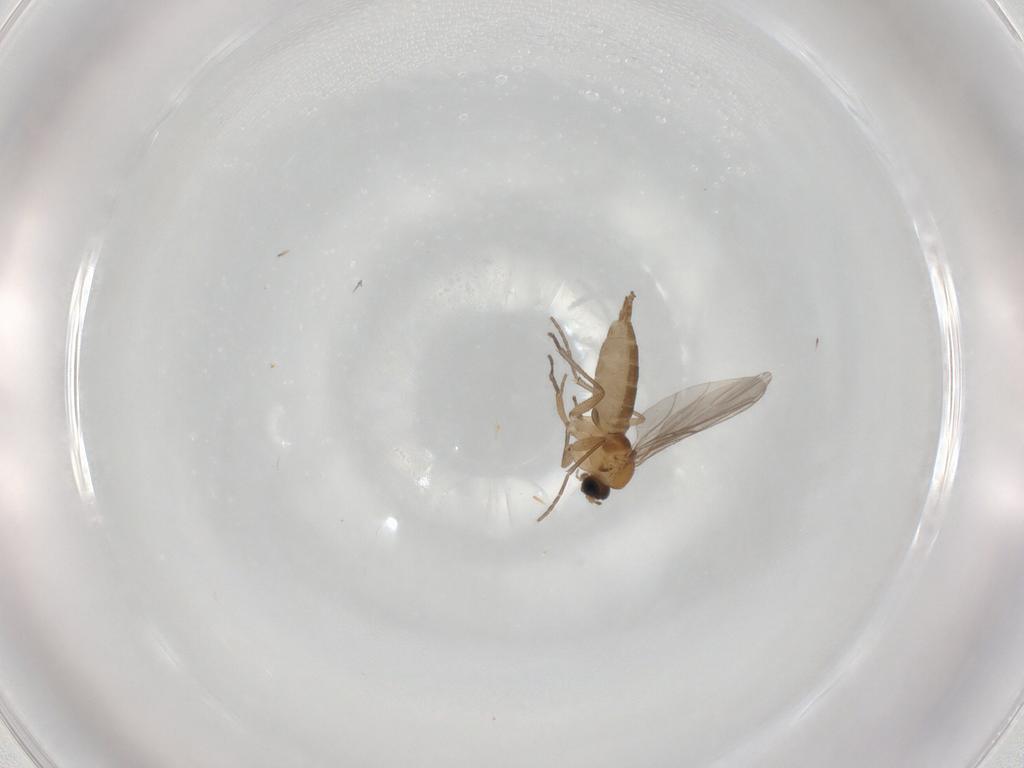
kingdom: Animalia
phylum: Arthropoda
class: Insecta
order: Diptera
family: Sciaridae
